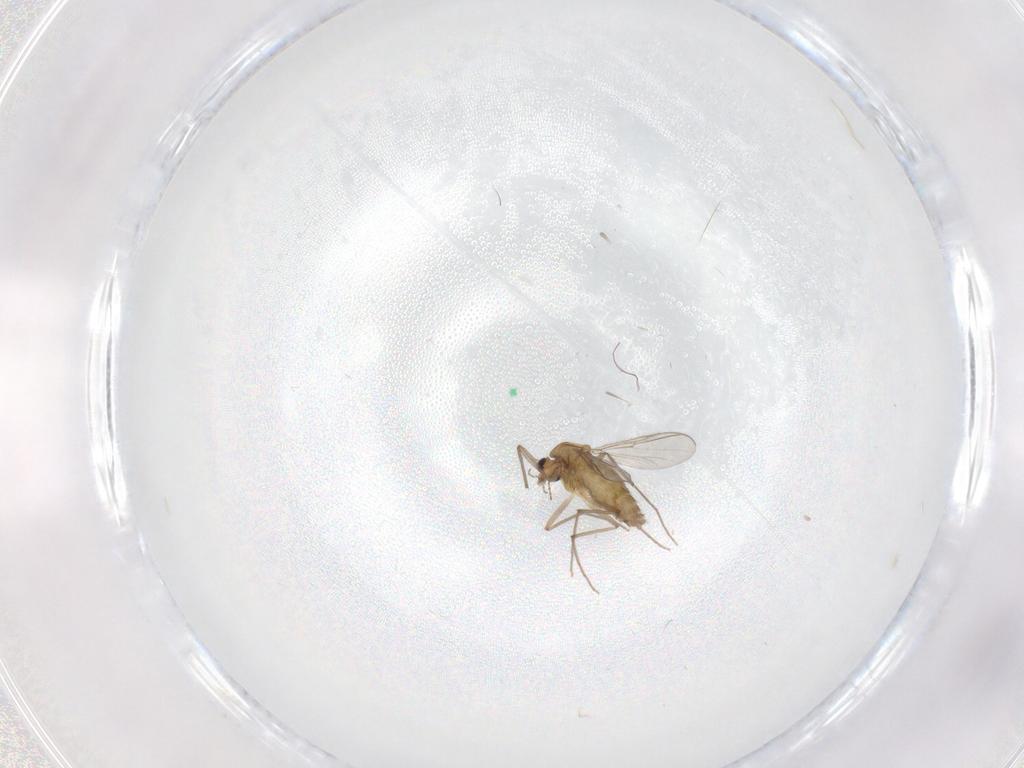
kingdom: Animalia
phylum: Arthropoda
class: Insecta
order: Diptera
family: Chironomidae
